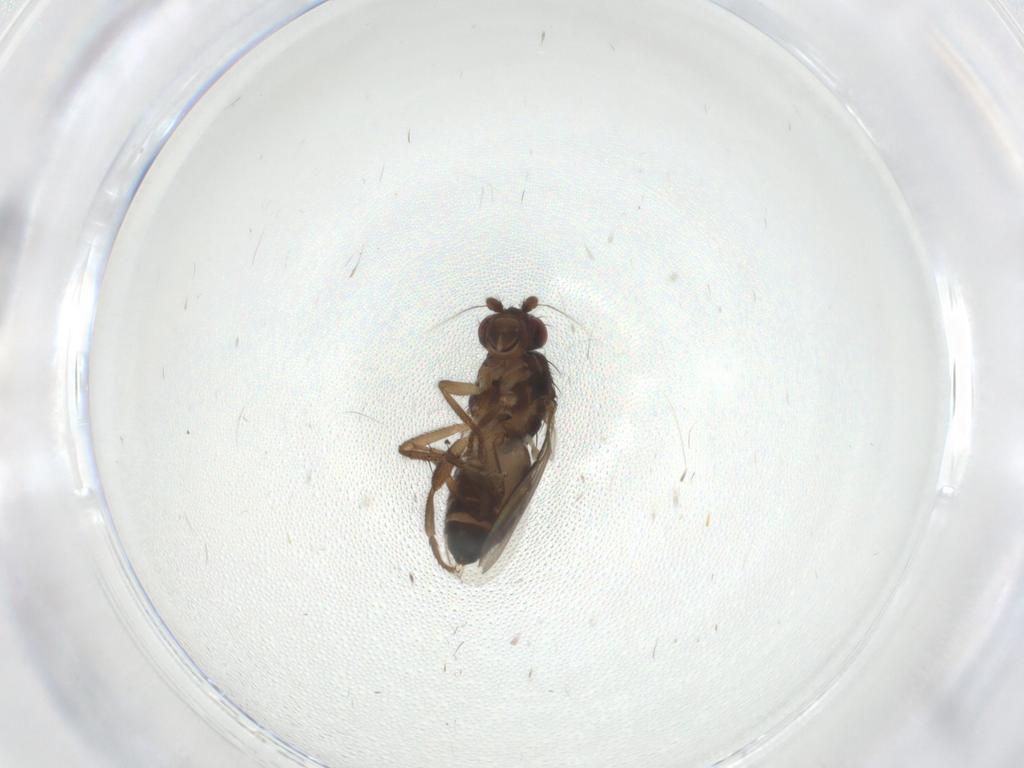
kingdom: Animalia
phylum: Arthropoda
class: Insecta
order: Diptera
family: Sphaeroceridae
